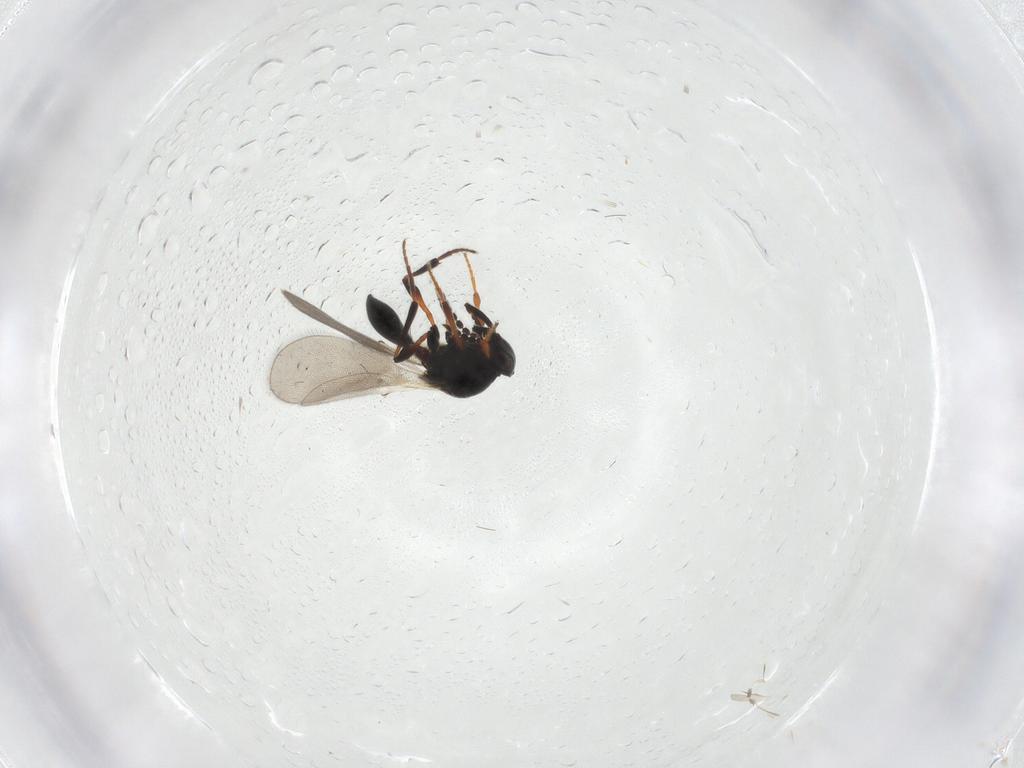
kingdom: Animalia
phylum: Arthropoda
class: Insecta
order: Hymenoptera
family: Platygastridae
